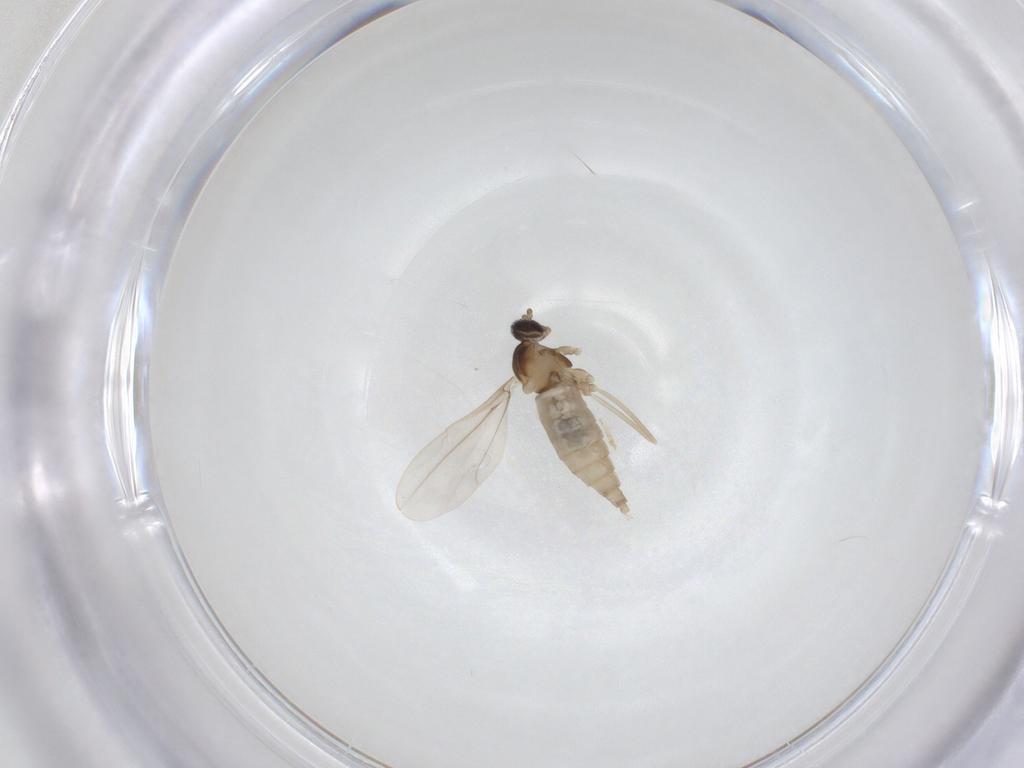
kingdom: Animalia
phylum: Arthropoda
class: Insecta
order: Diptera
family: Cecidomyiidae
